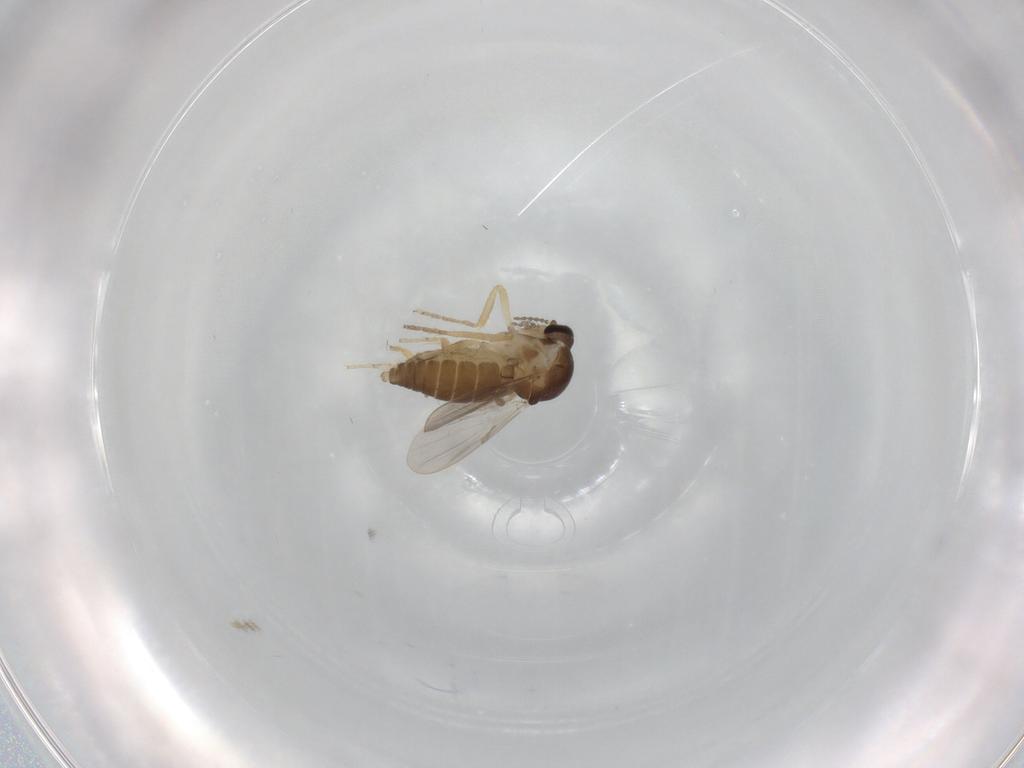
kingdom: Animalia
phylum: Arthropoda
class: Insecta
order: Diptera
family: Ceratopogonidae
